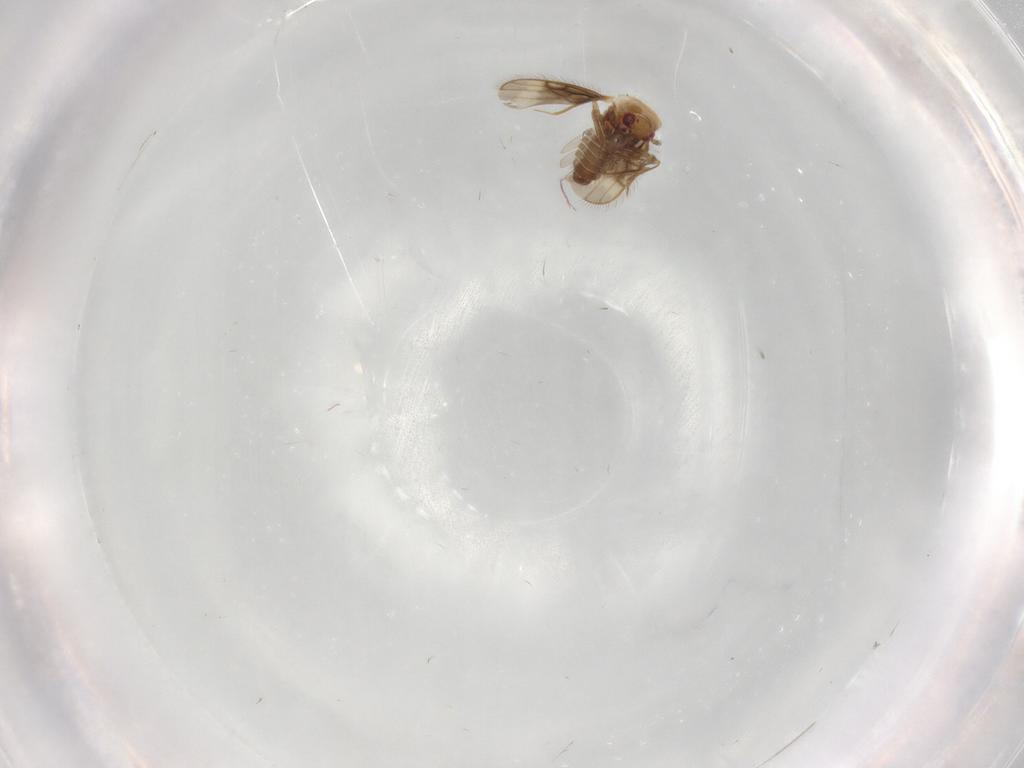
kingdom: Animalia
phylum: Arthropoda
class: Insecta
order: Hemiptera
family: Schizopteridae
